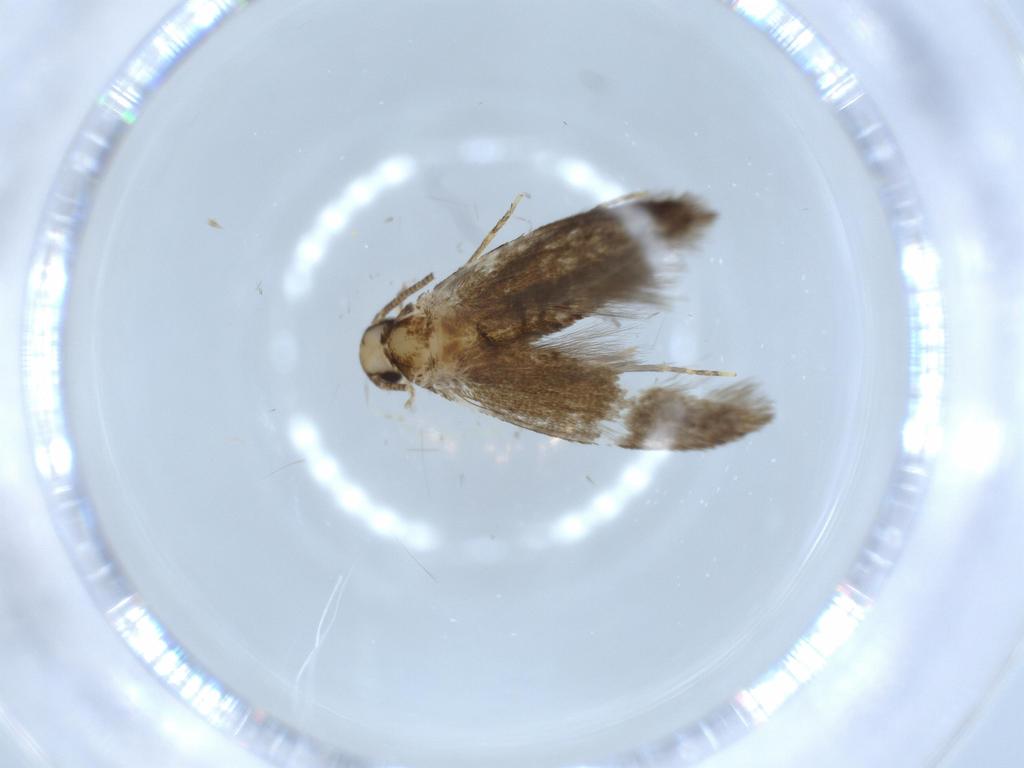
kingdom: Animalia
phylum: Arthropoda
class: Insecta
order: Lepidoptera
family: Tineidae
